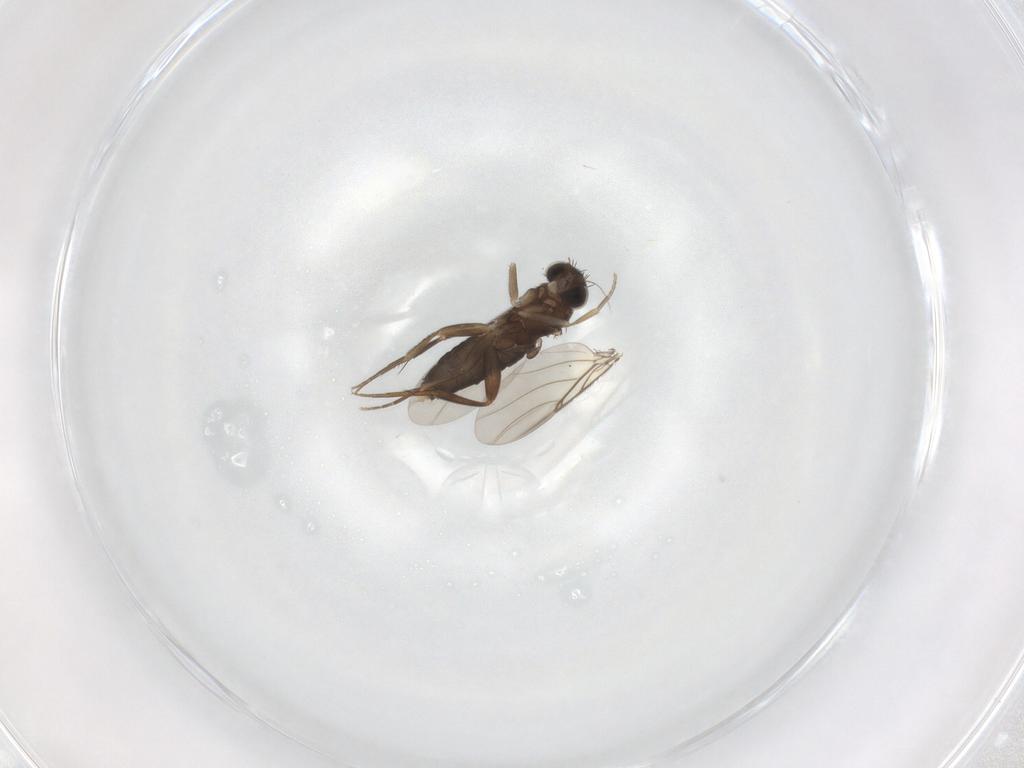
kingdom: Animalia
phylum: Arthropoda
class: Insecta
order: Diptera
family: Phoridae
